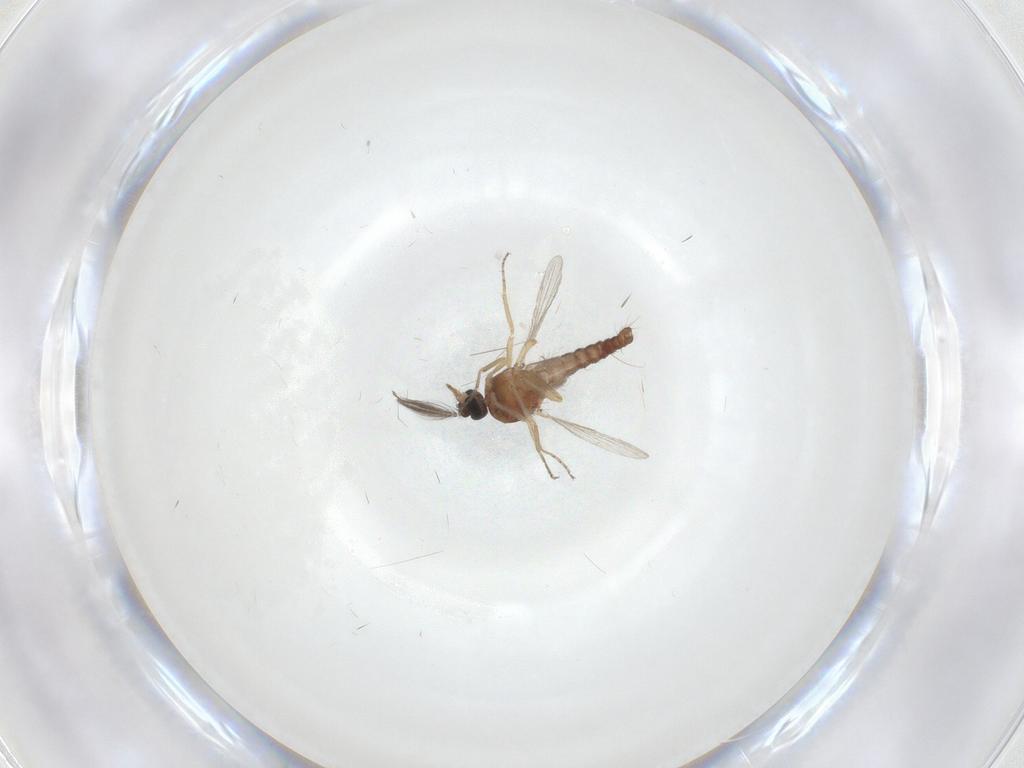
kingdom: Animalia
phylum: Arthropoda
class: Insecta
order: Diptera
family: Ceratopogonidae
